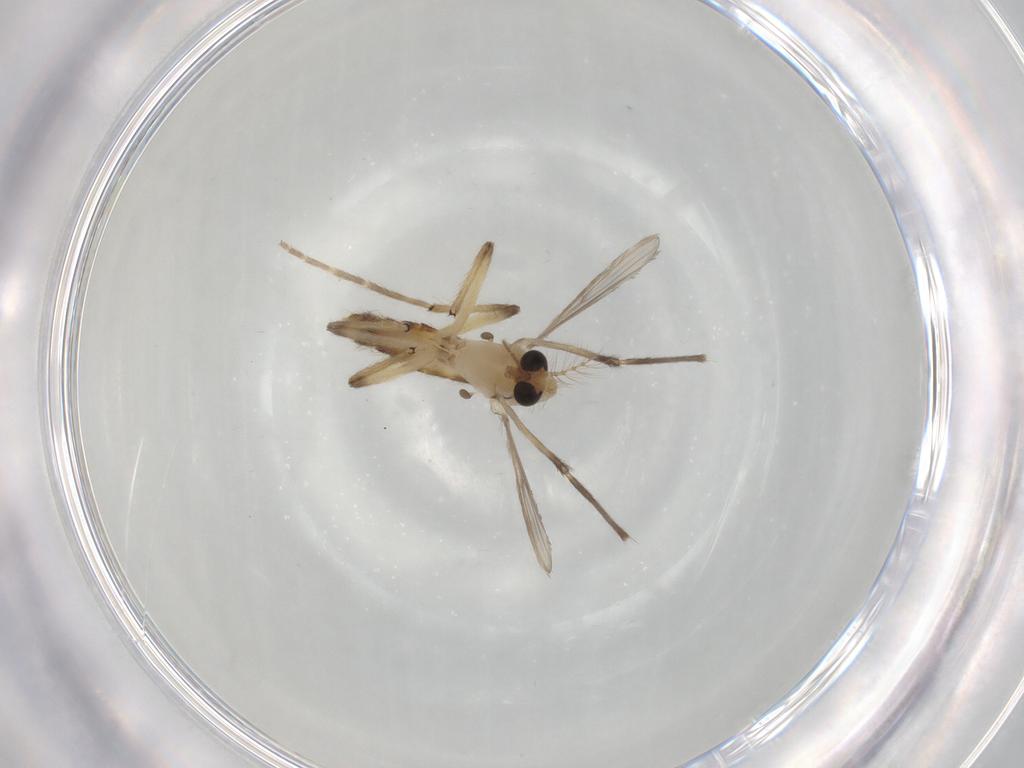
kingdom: Animalia
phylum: Arthropoda
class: Insecta
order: Diptera
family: Chironomidae
